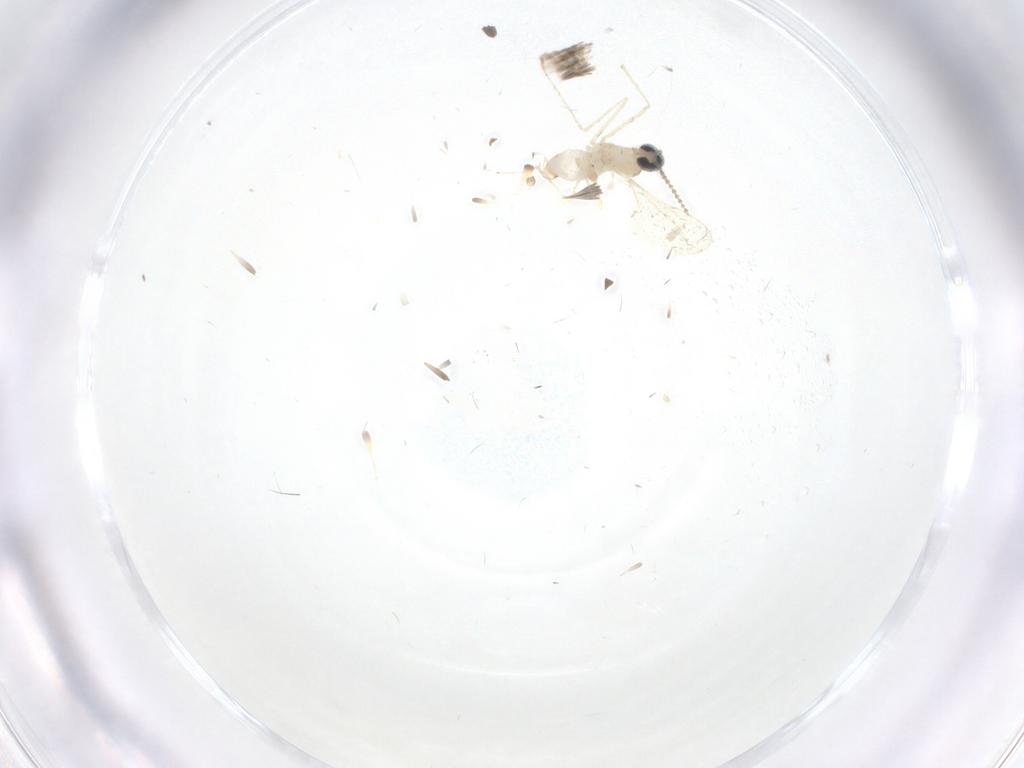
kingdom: Animalia
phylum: Arthropoda
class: Insecta
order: Diptera
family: Cecidomyiidae
